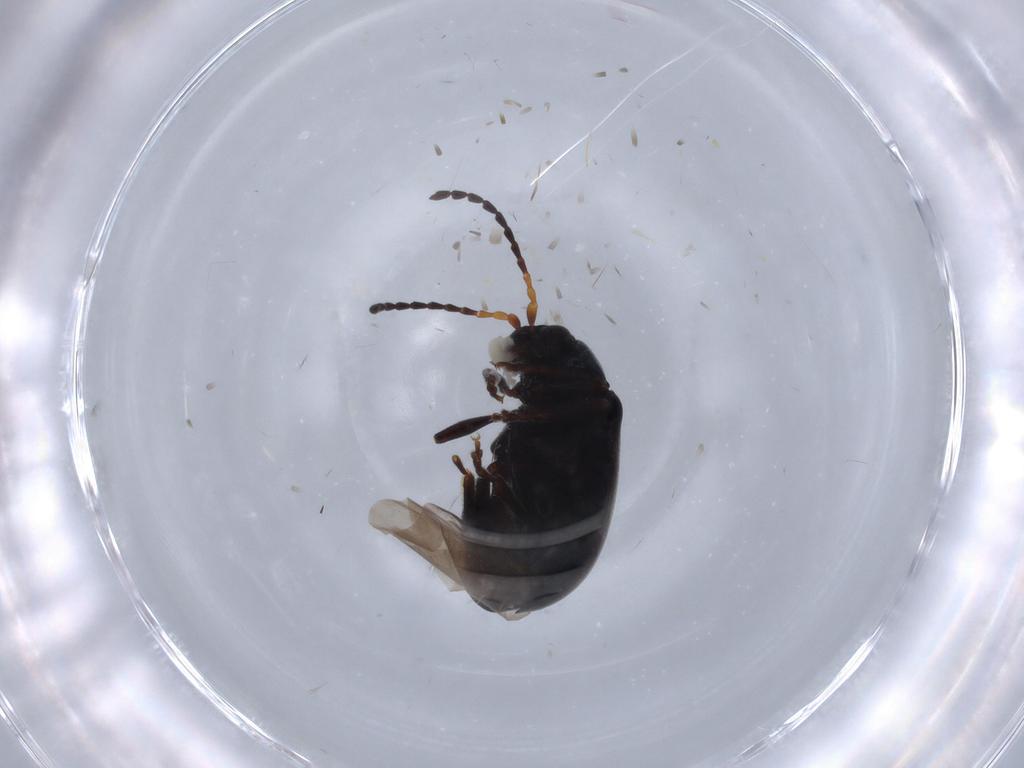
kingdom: Animalia
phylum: Arthropoda
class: Insecta
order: Coleoptera
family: Chrysomelidae
